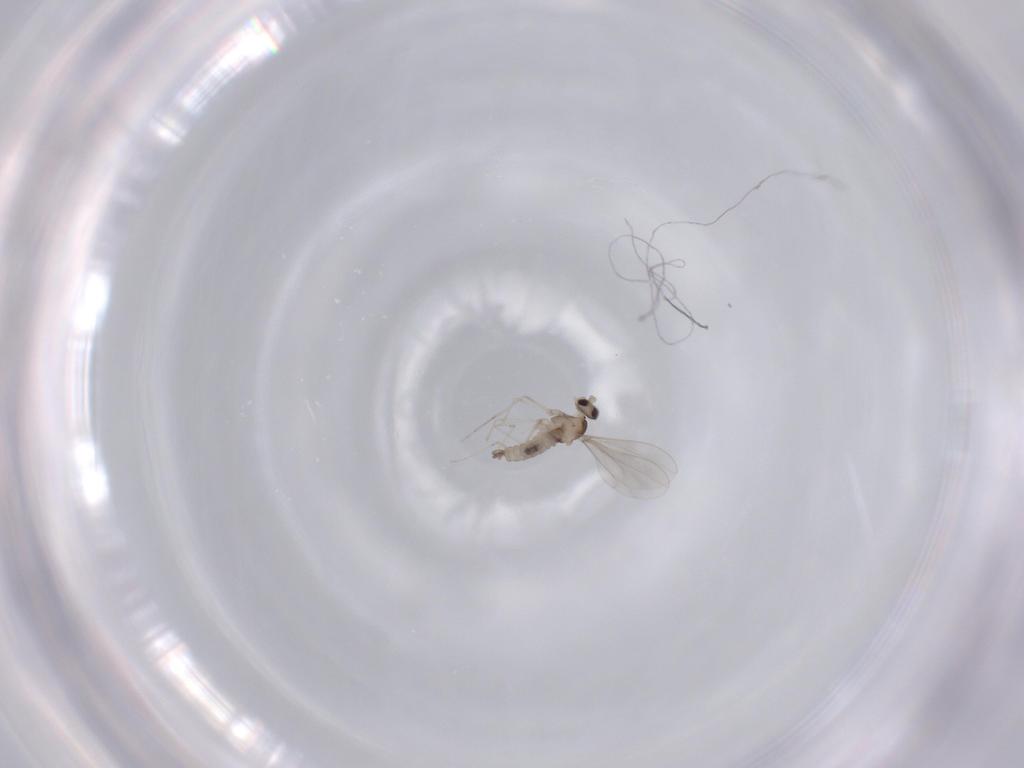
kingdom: Animalia
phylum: Arthropoda
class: Insecta
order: Diptera
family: Cecidomyiidae
